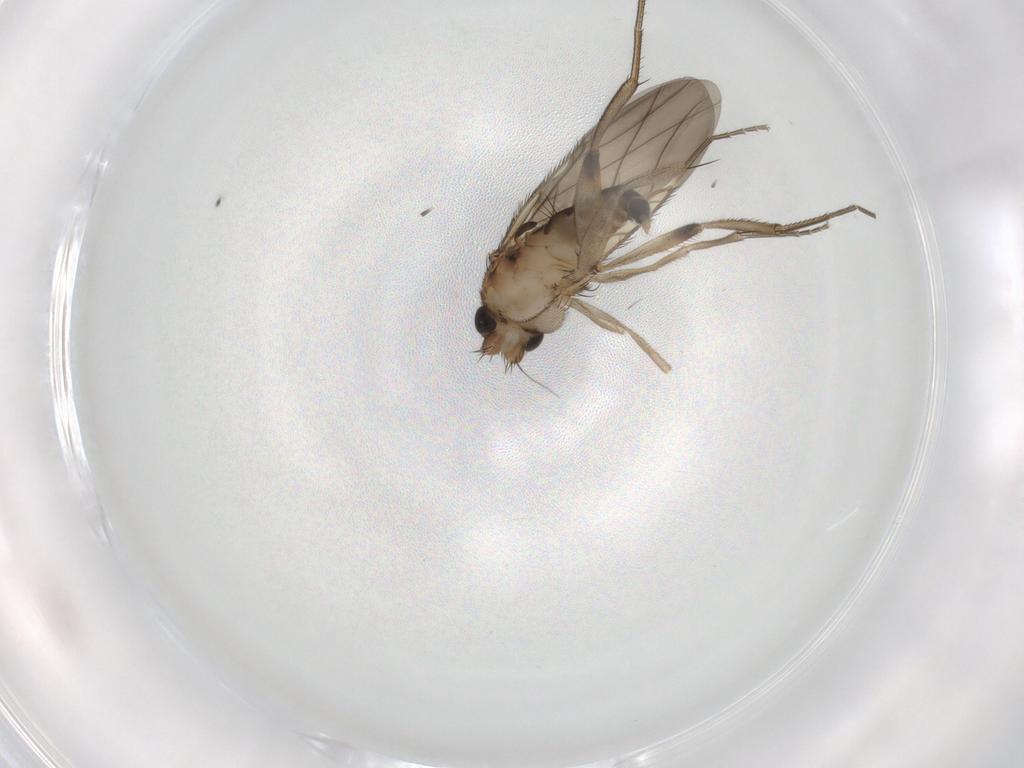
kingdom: Animalia
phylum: Arthropoda
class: Insecta
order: Diptera
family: Phoridae
